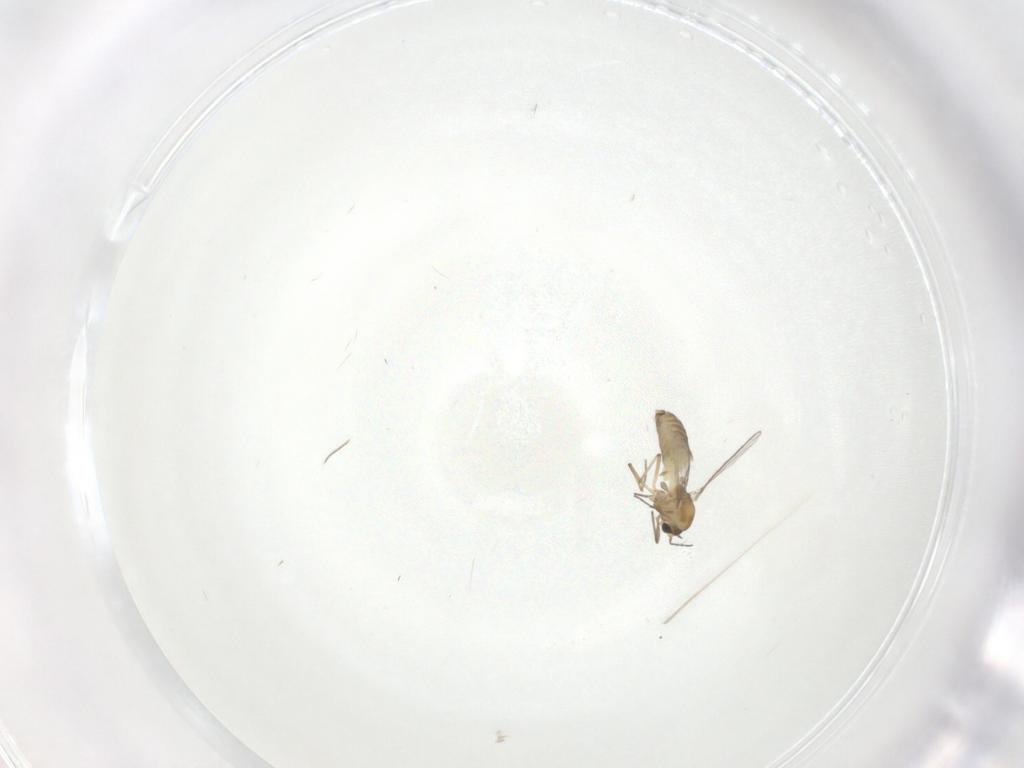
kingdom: Animalia
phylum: Arthropoda
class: Insecta
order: Diptera
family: Chironomidae
